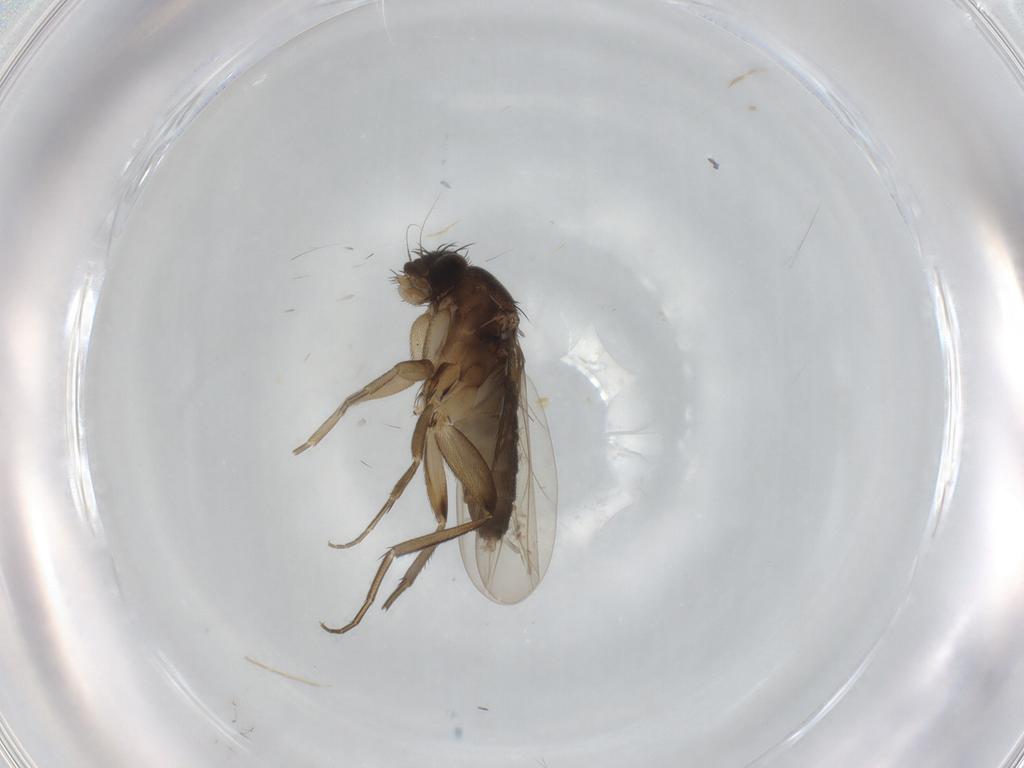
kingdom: Animalia
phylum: Arthropoda
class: Insecta
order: Diptera
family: Phoridae
